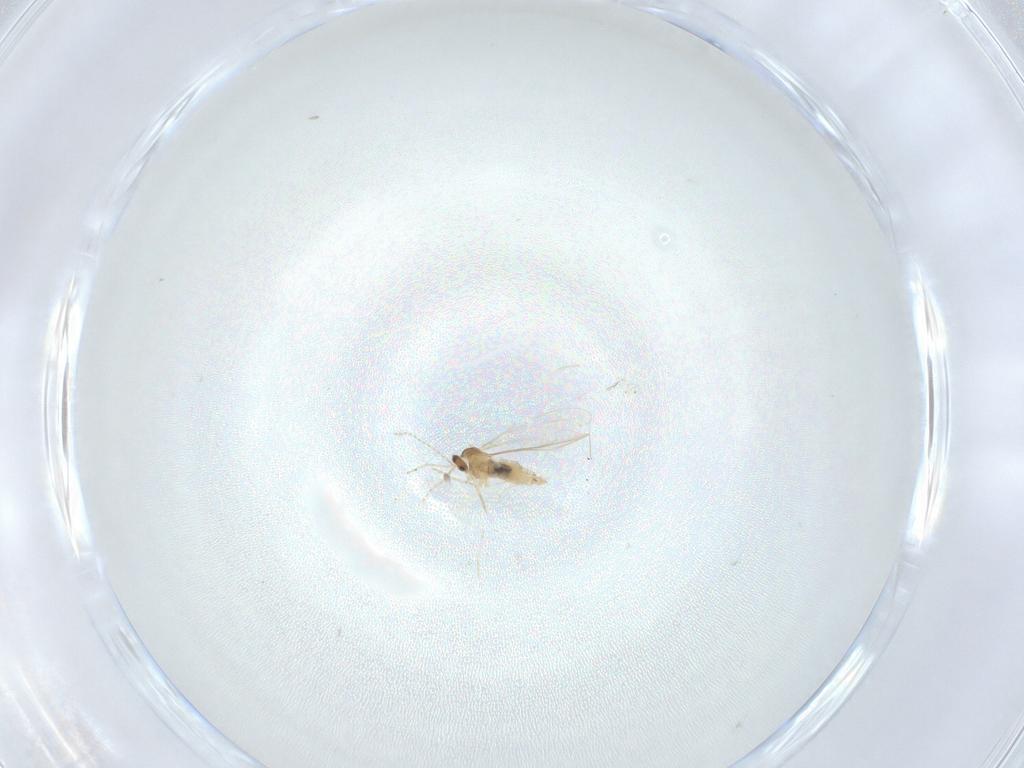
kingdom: Animalia
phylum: Arthropoda
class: Insecta
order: Diptera
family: Cecidomyiidae
